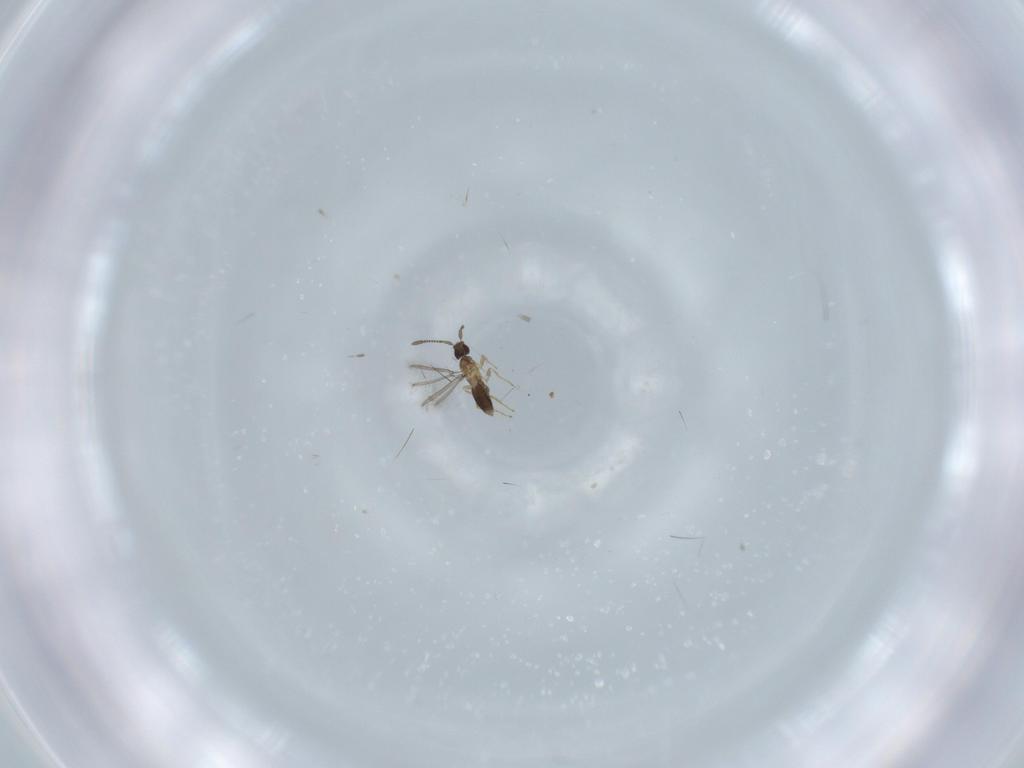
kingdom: Animalia
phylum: Arthropoda
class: Insecta
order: Hymenoptera
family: Mymaridae
